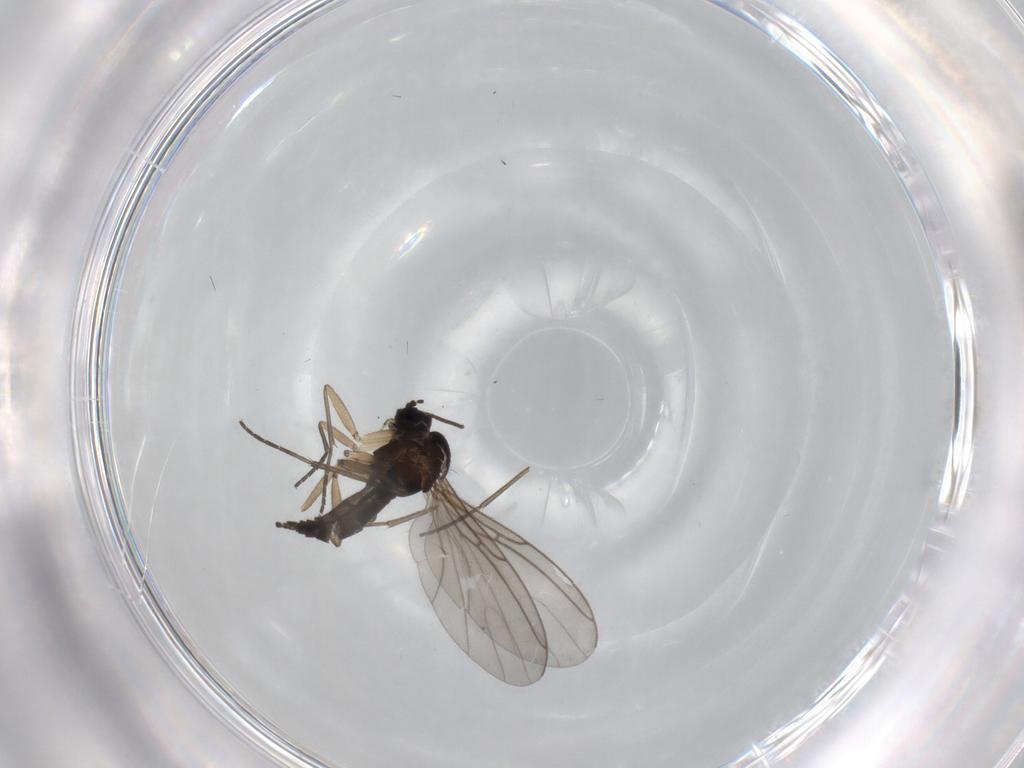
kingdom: Animalia
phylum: Arthropoda
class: Insecta
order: Diptera
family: Sciaridae
